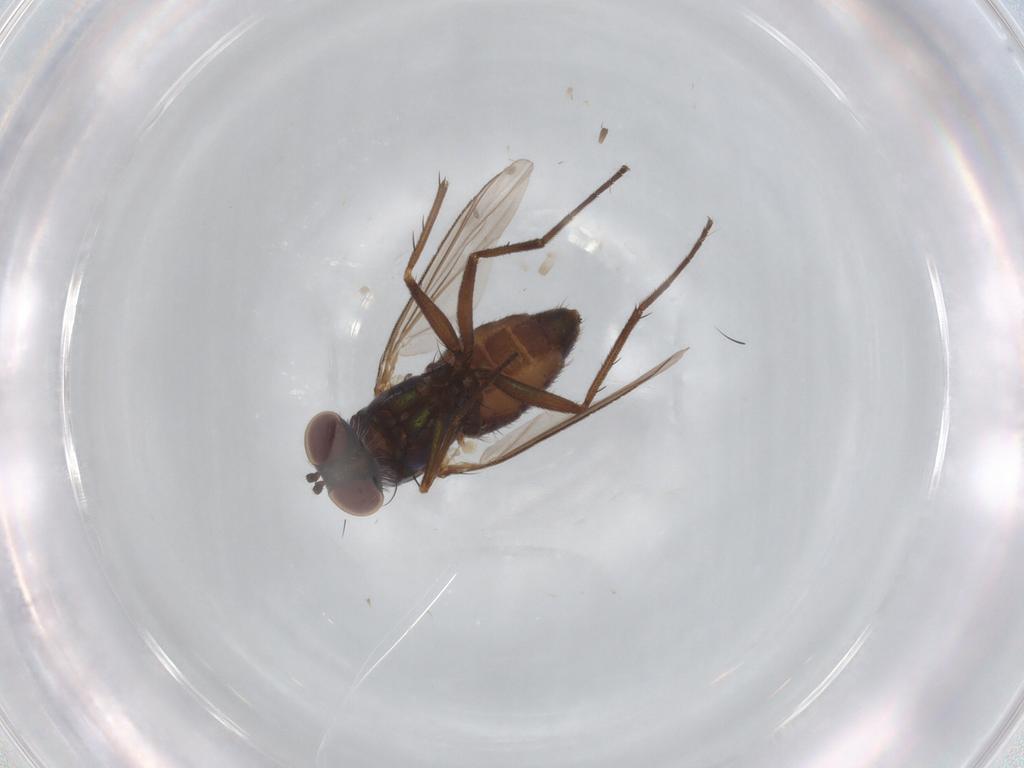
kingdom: Animalia
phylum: Arthropoda
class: Insecta
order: Diptera
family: Dolichopodidae
